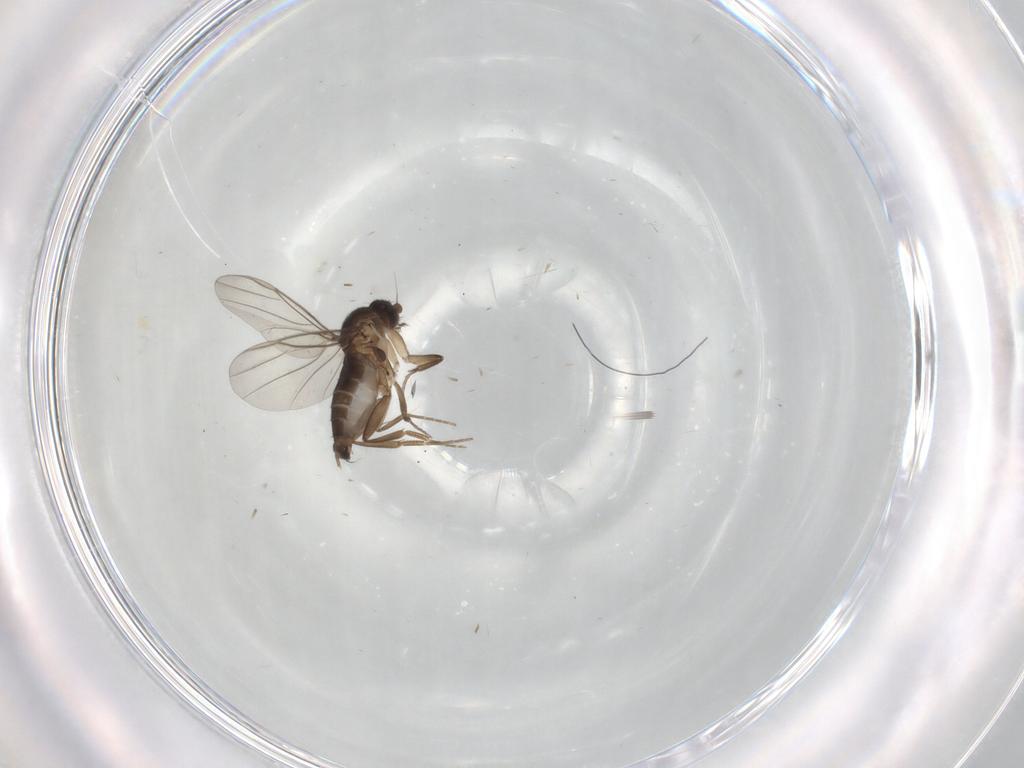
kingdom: Animalia
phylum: Arthropoda
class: Insecta
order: Diptera
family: Phoridae
